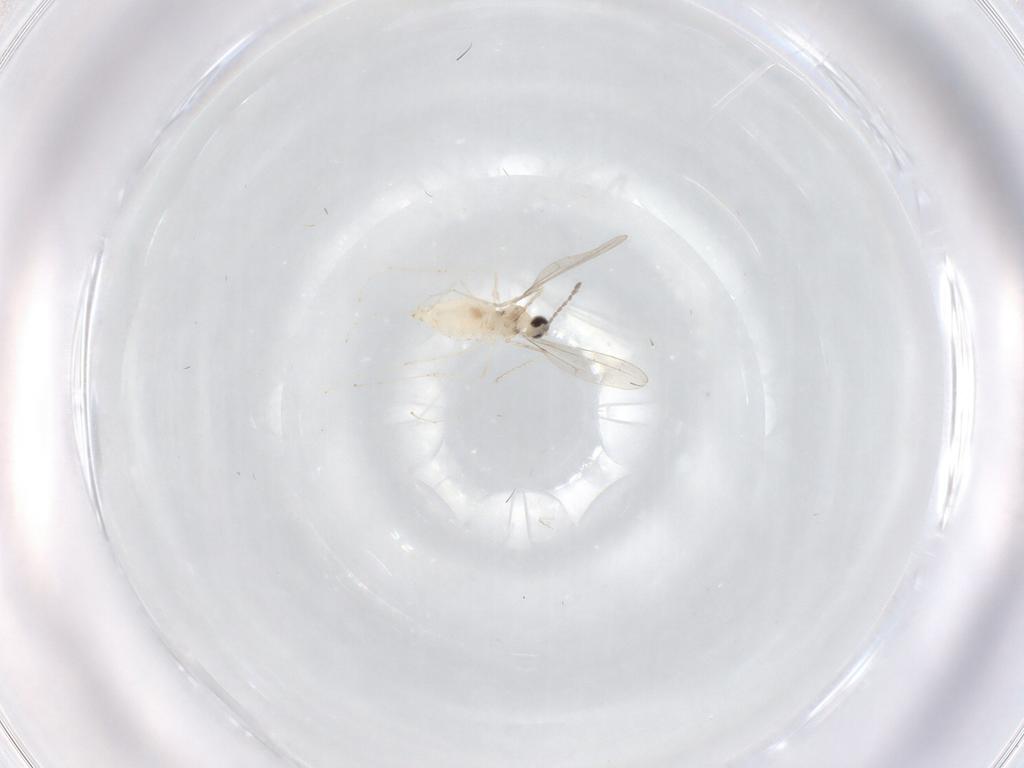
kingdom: Animalia
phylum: Arthropoda
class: Insecta
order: Diptera
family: Cecidomyiidae
